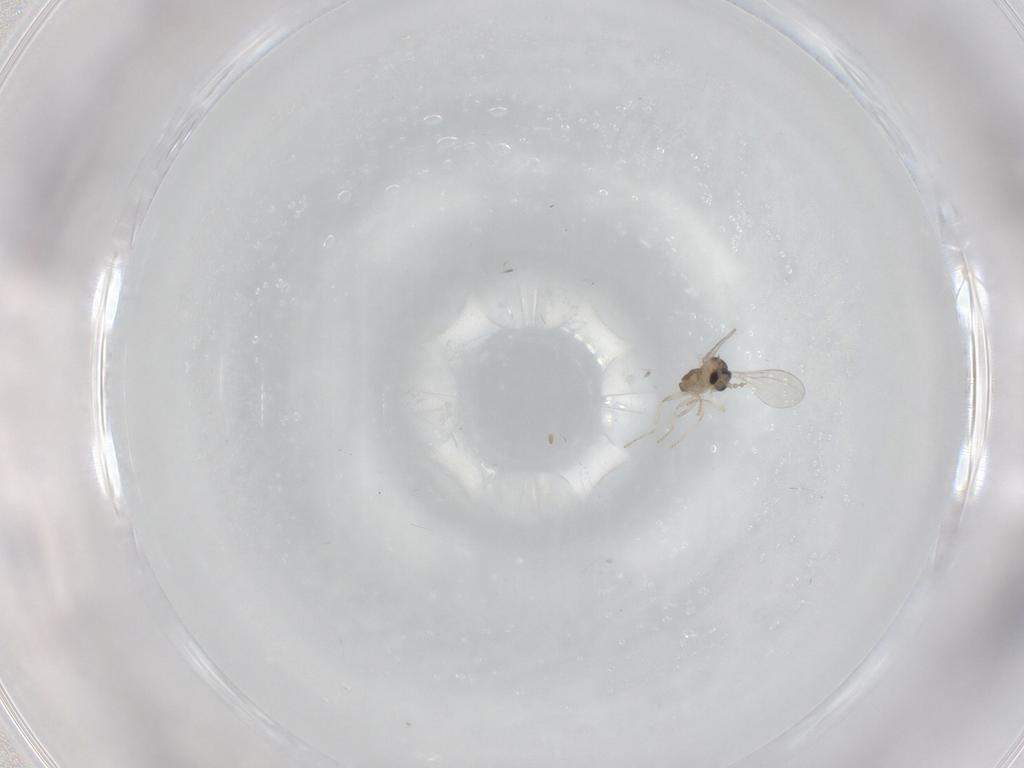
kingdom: Animalia
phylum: Arthropoda
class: Insecta
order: Diptera
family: Cecidomyiidae
